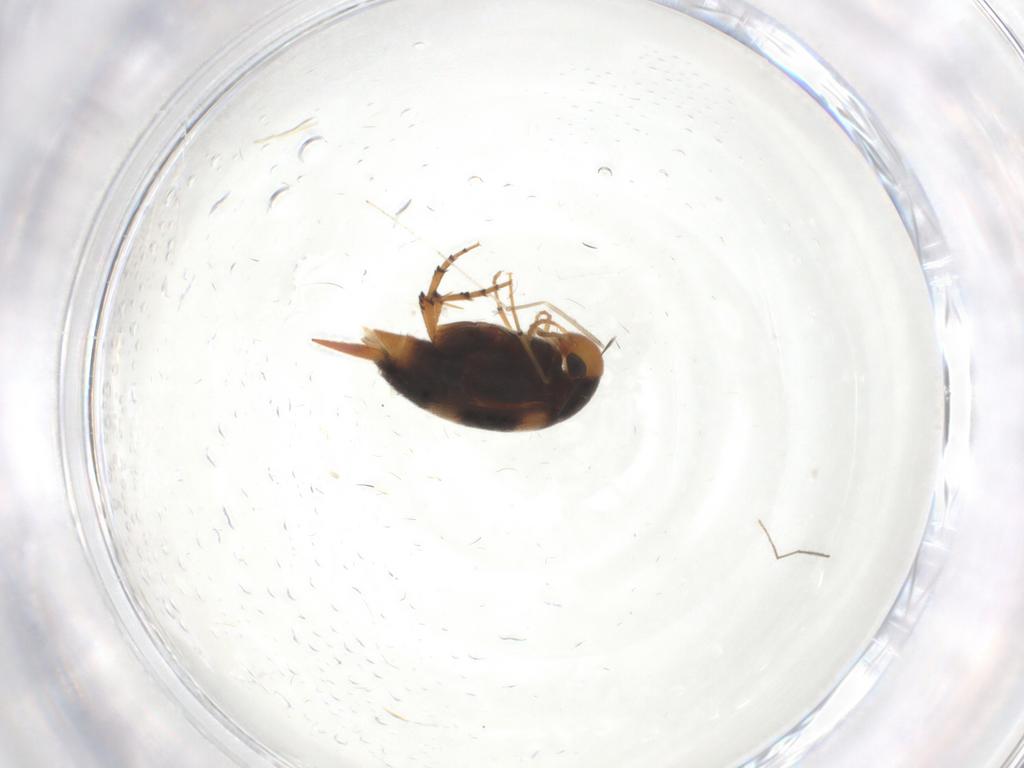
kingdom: Animalia
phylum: Arthropoda
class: Insecta
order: Coleoptera
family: Mordellidae
